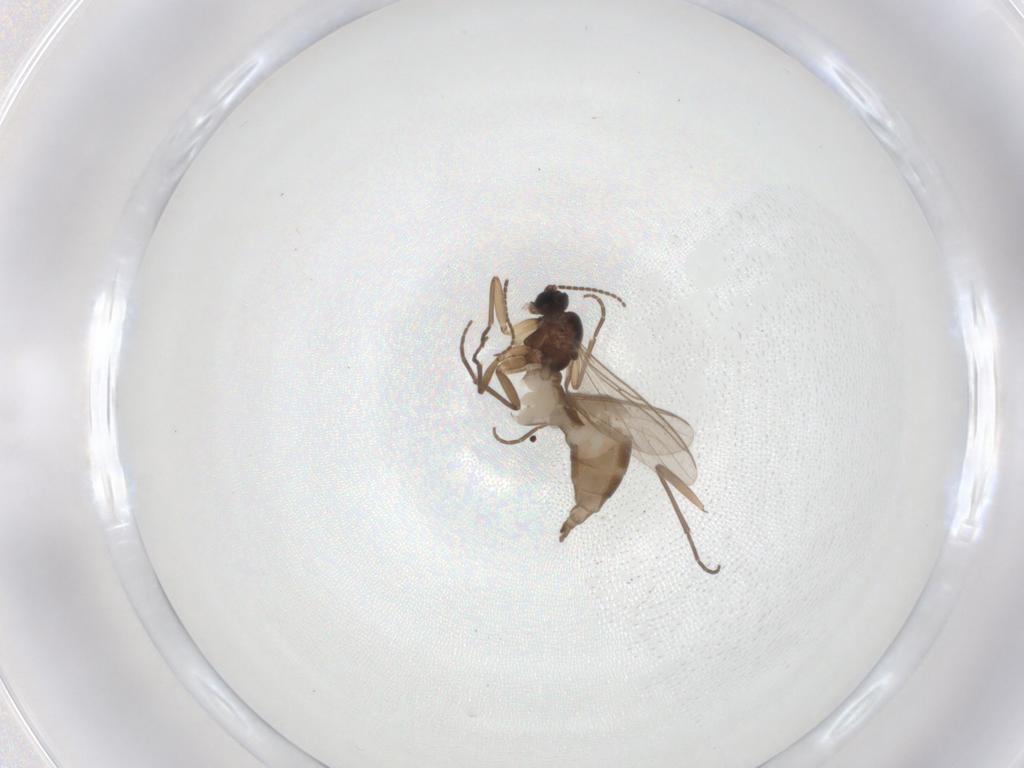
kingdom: Animalia
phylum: Arthropoda
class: Insecta
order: Diptera
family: Sciaridae
